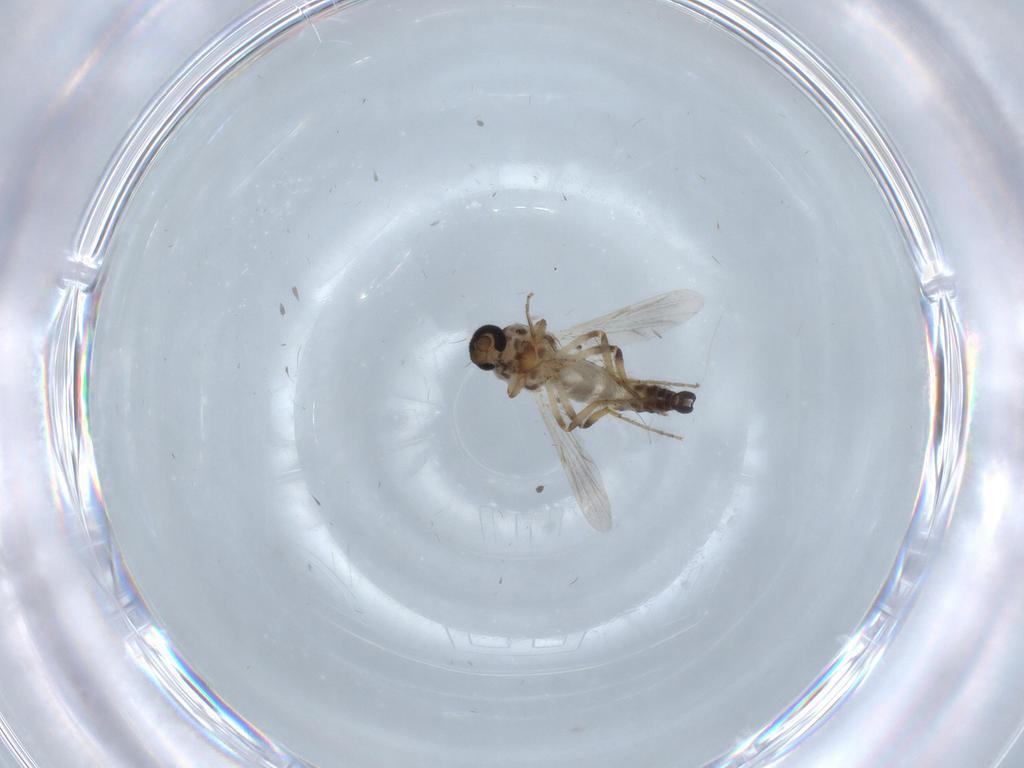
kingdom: Animalia
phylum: Arthropoda
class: Insecta
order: Diptera
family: Ceratopogonidae
